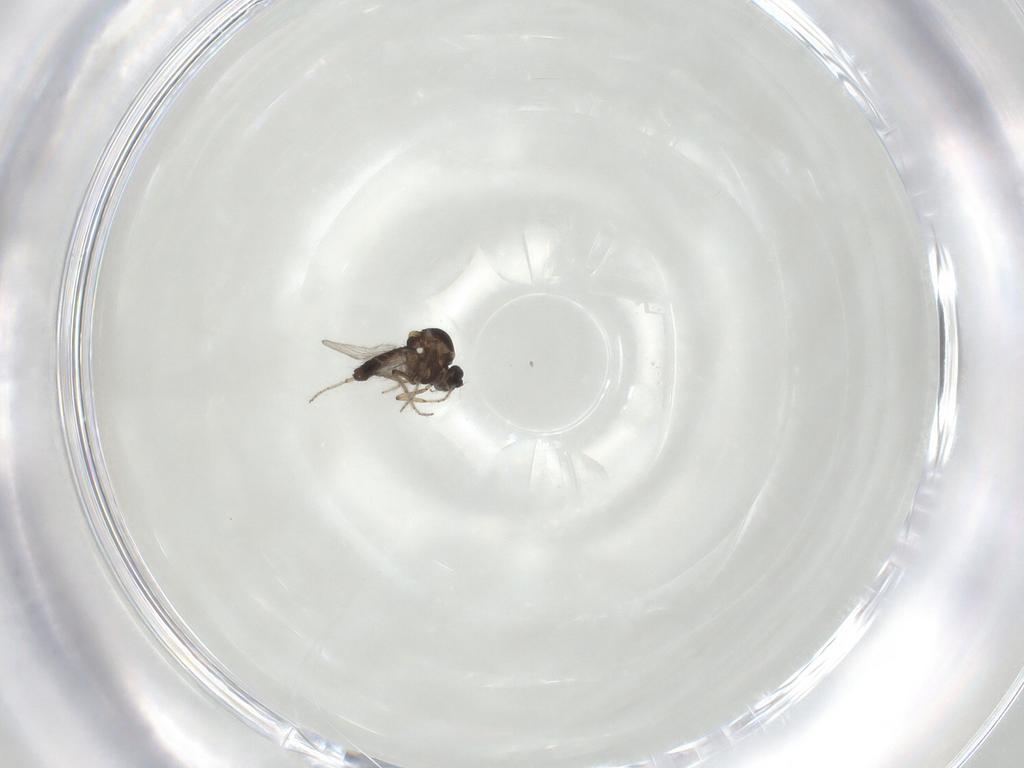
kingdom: Animalia
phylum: Arthropoda
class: Insecta
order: Diptera
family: Ceratopogonidae
